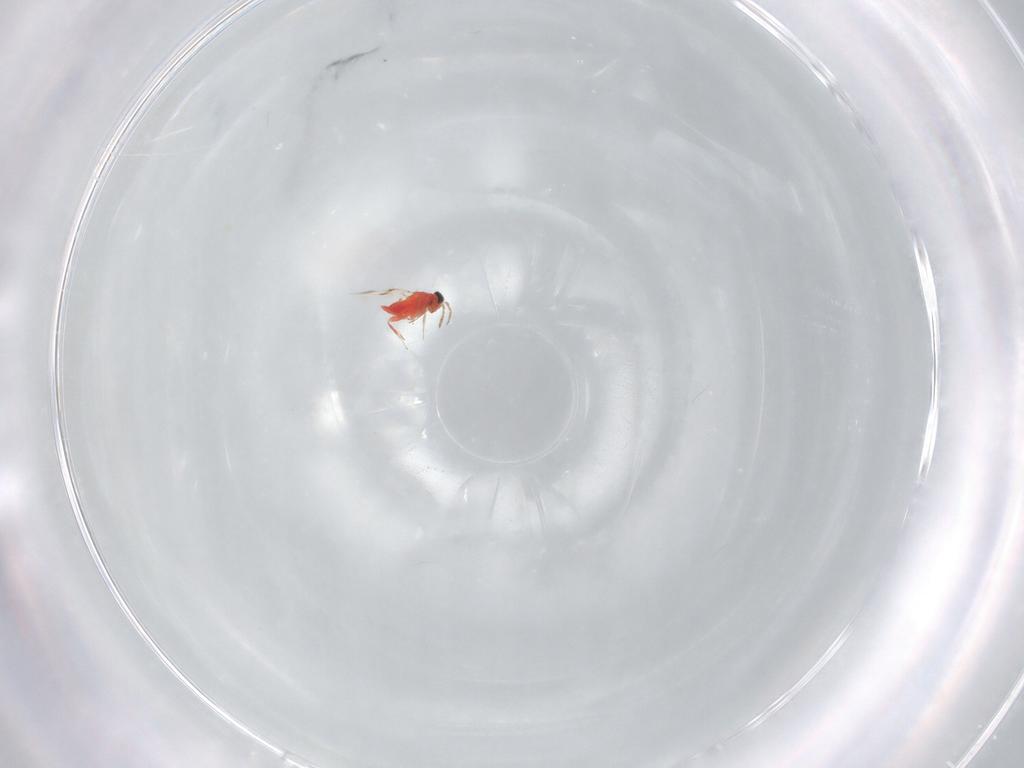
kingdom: Animalia
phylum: Arthropoda
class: Insecta
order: Hymenoptera
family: Trichogrammatidae
